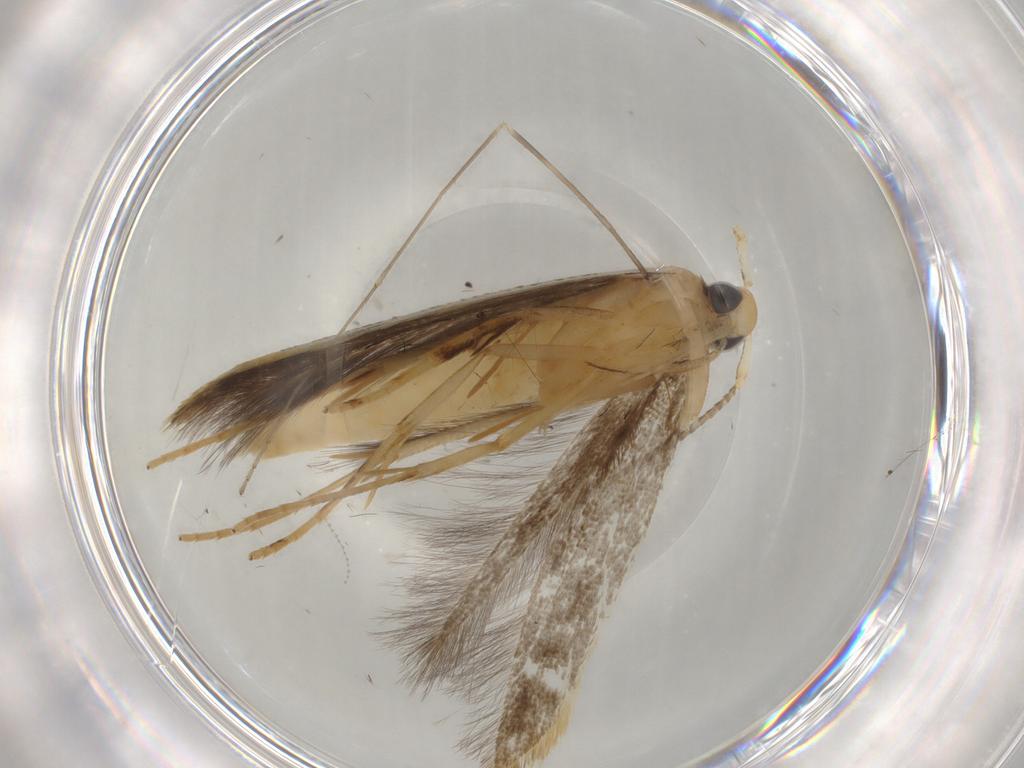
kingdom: Animalia
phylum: Arthropoda
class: Insecta
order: Lepidoptera
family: Pterolonchidae
